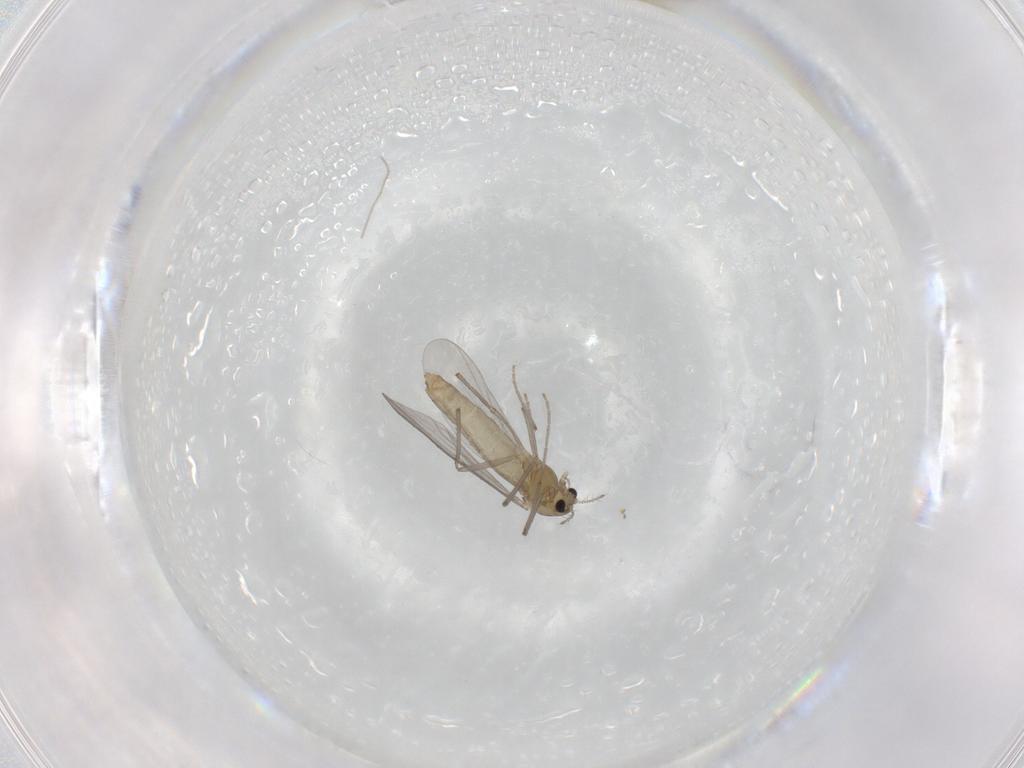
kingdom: Animalia
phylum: Arthropoda
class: Insecta
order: Diptera
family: Chironomidae
